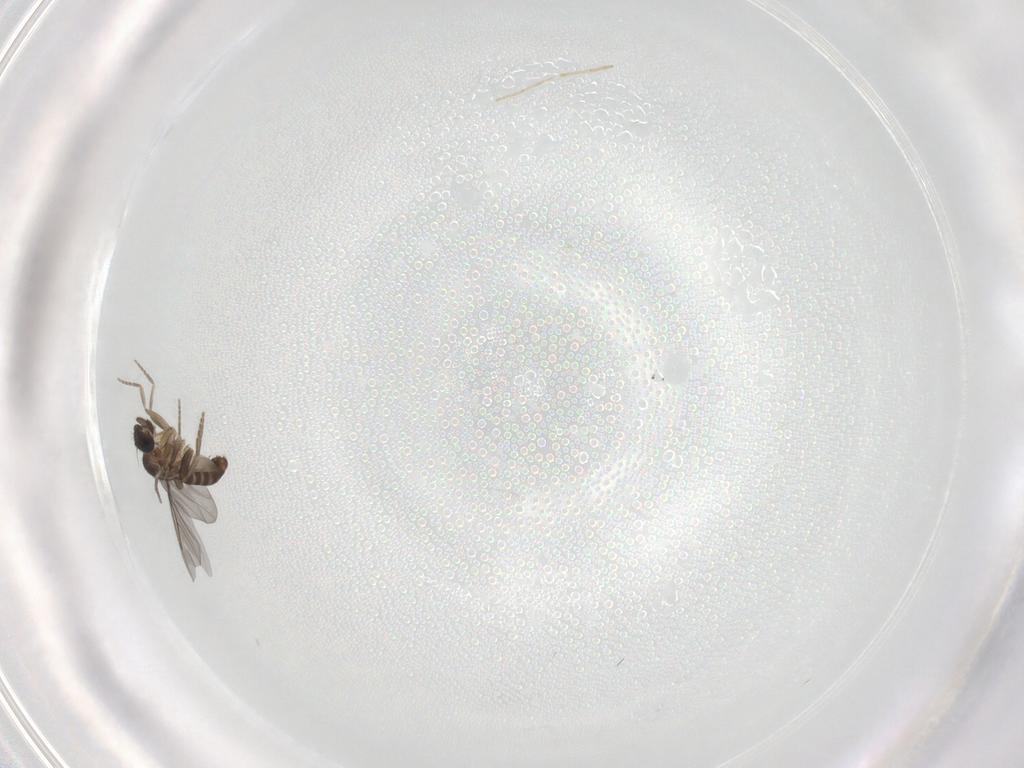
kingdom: Animalia
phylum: Arthropoda
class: Insecta
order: Diptera
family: Phoridae
